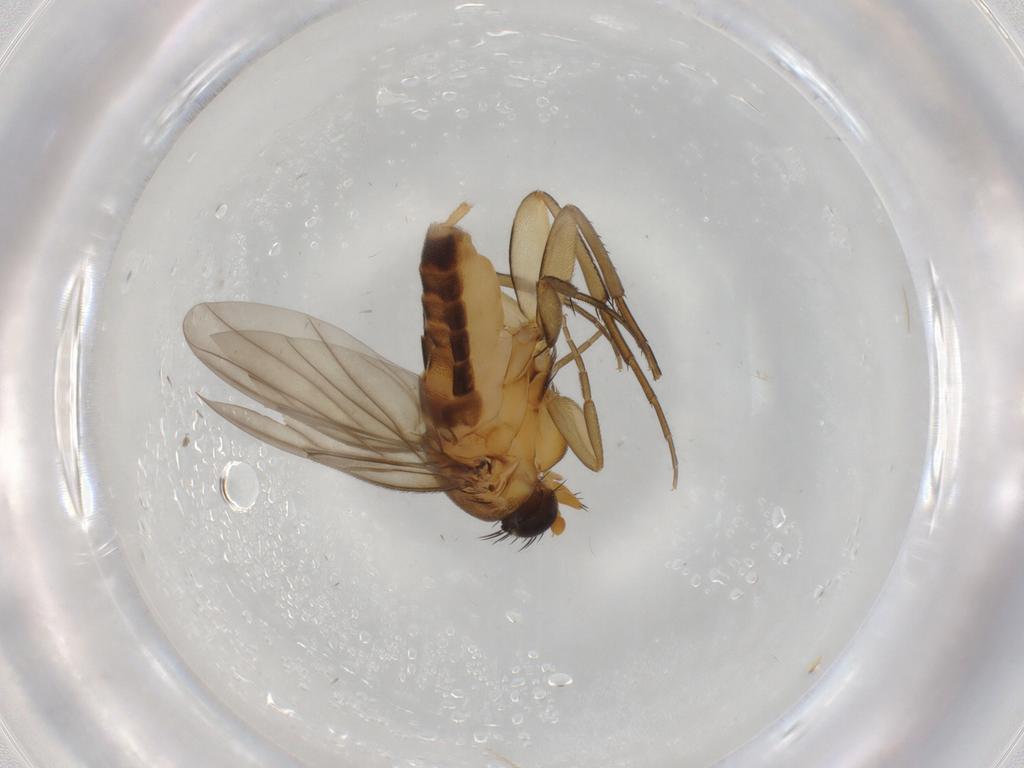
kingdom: Animalia
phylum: Arthropoda
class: Insecta
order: Diptera
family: Phoridae
